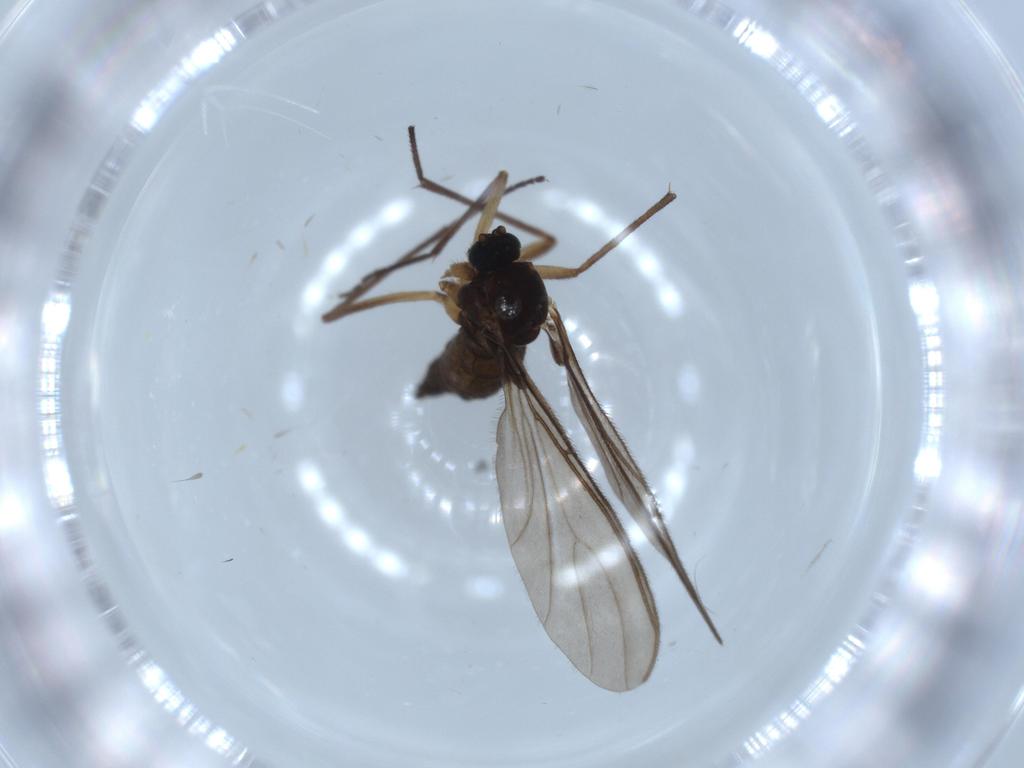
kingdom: Animalia
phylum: Arthropoda
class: Insecta
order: Diptera
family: Sciaridae
